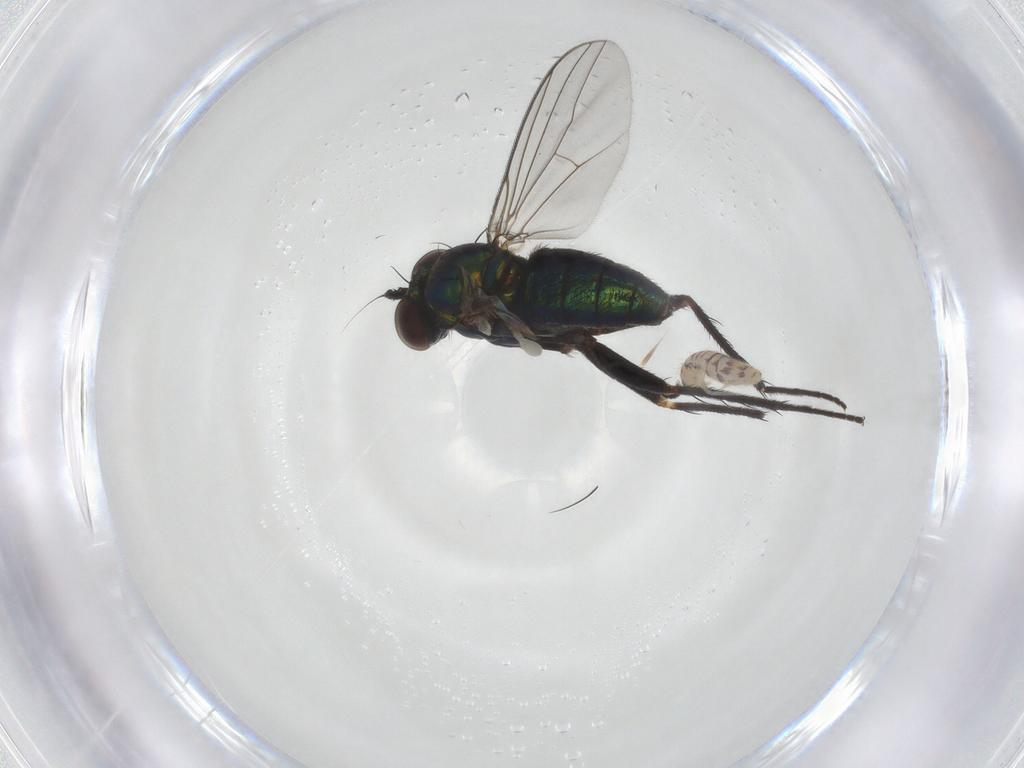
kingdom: Animalia
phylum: Arthropoda
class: Insecta
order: Diptera
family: Dolichopodidae
